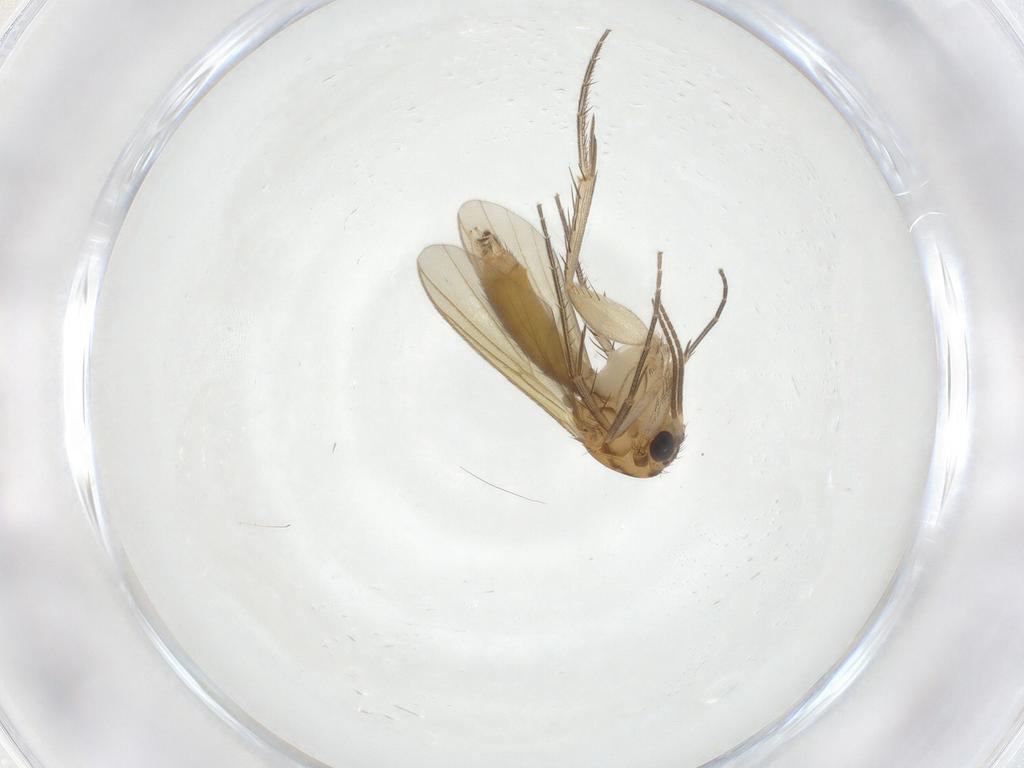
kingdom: Animalia
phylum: Arthropoda
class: Insecta
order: Diptera
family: Mycetophilidae
